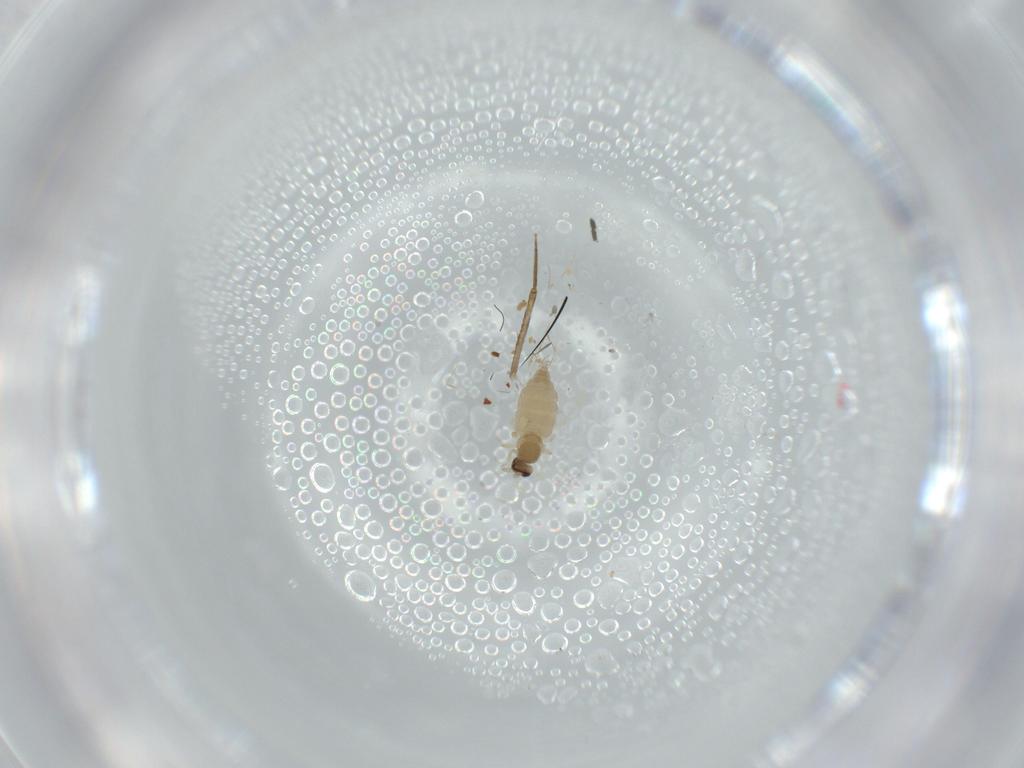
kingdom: Animalia
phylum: Arthropoda
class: Insecta
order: Diptera
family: Cecidomyiidae
